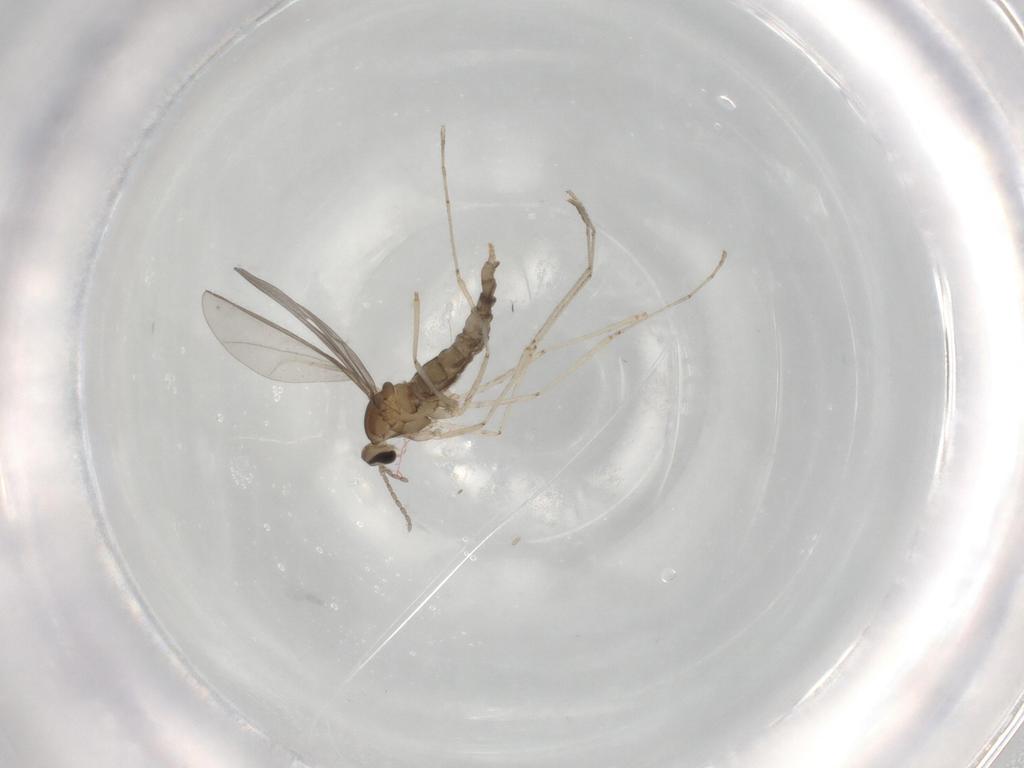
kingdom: Animalia
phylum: Arthropoda
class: Insecta
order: Diptera
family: Cecidomyiidae
